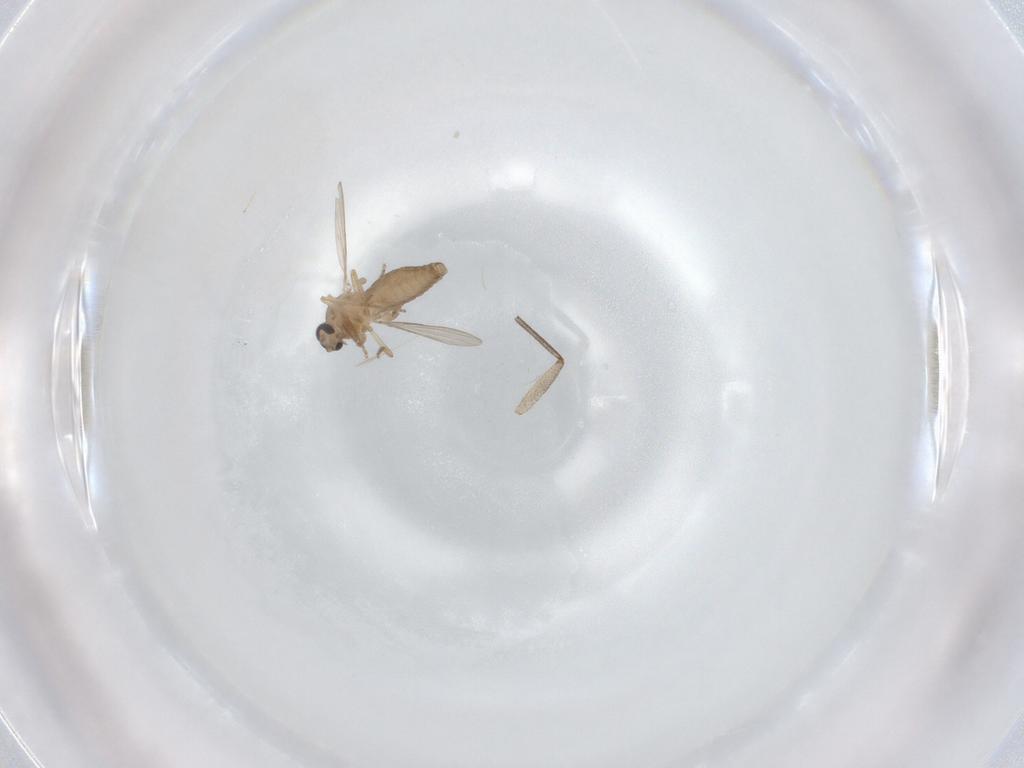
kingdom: Animalia
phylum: Arthropoda
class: Insecta
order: Diptera
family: Ceratopogonidae
